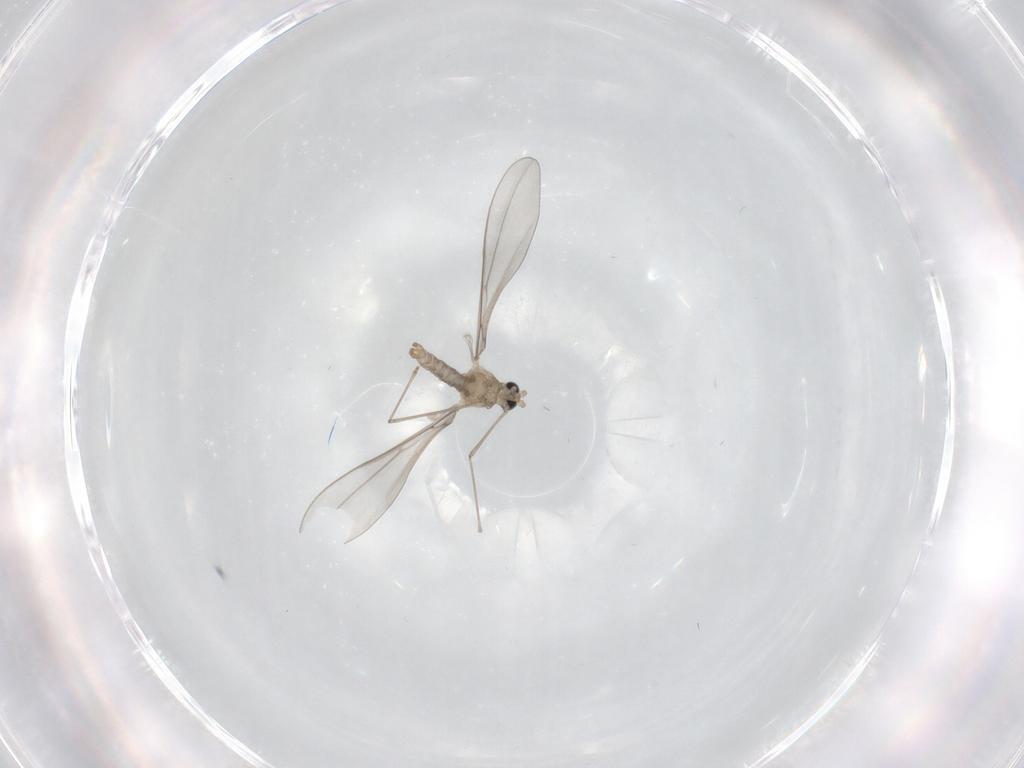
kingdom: Animalia
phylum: Arthropoda
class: Insecta
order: Diptera
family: Cecidomyiidae
